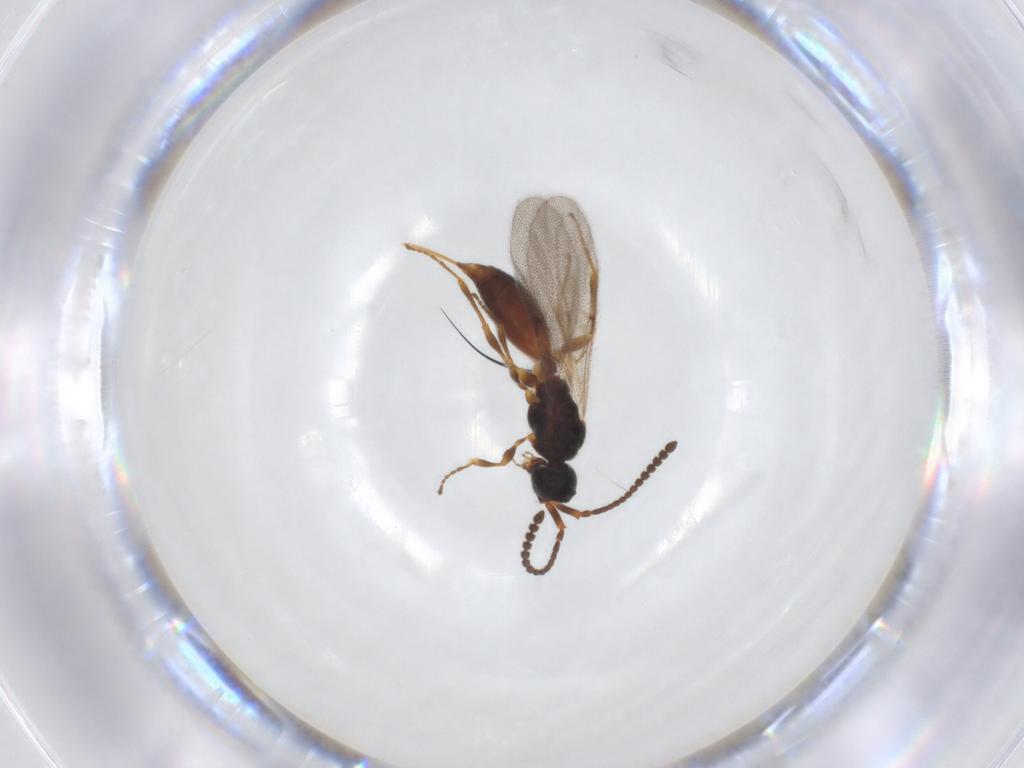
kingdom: Animalia
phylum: Arthropoda
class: Insecta
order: Hymenoptera
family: Diapriidae
